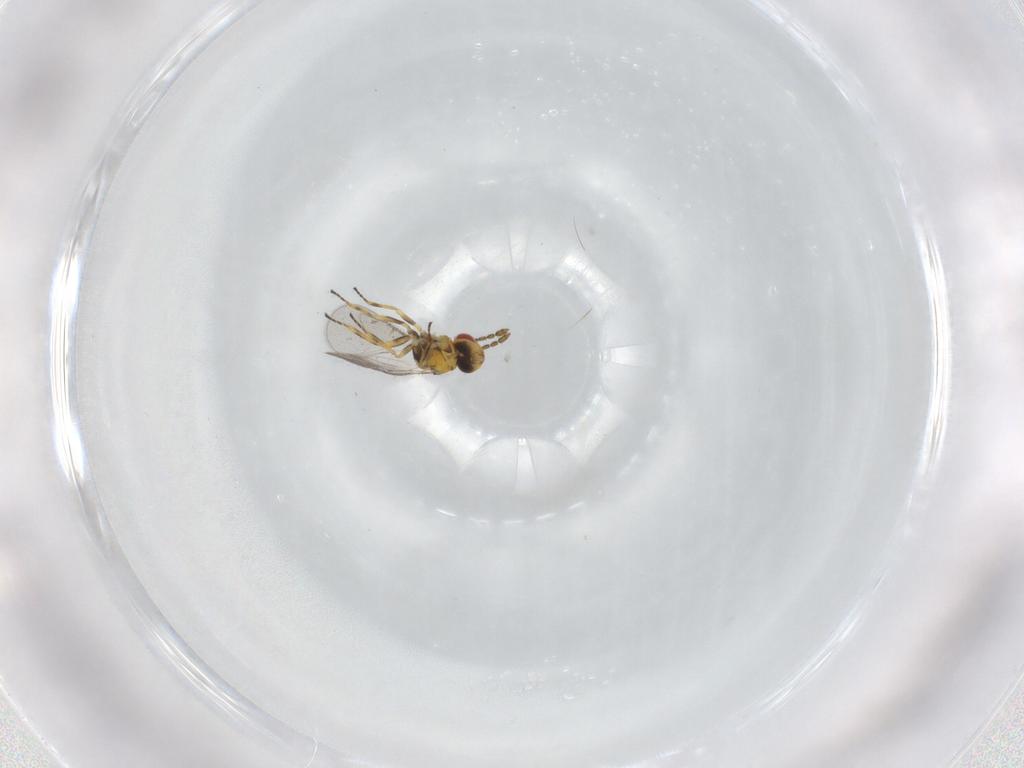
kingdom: Animalia
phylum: Arthropoda
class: Insecta
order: Hymenoptera
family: Eulophidae
